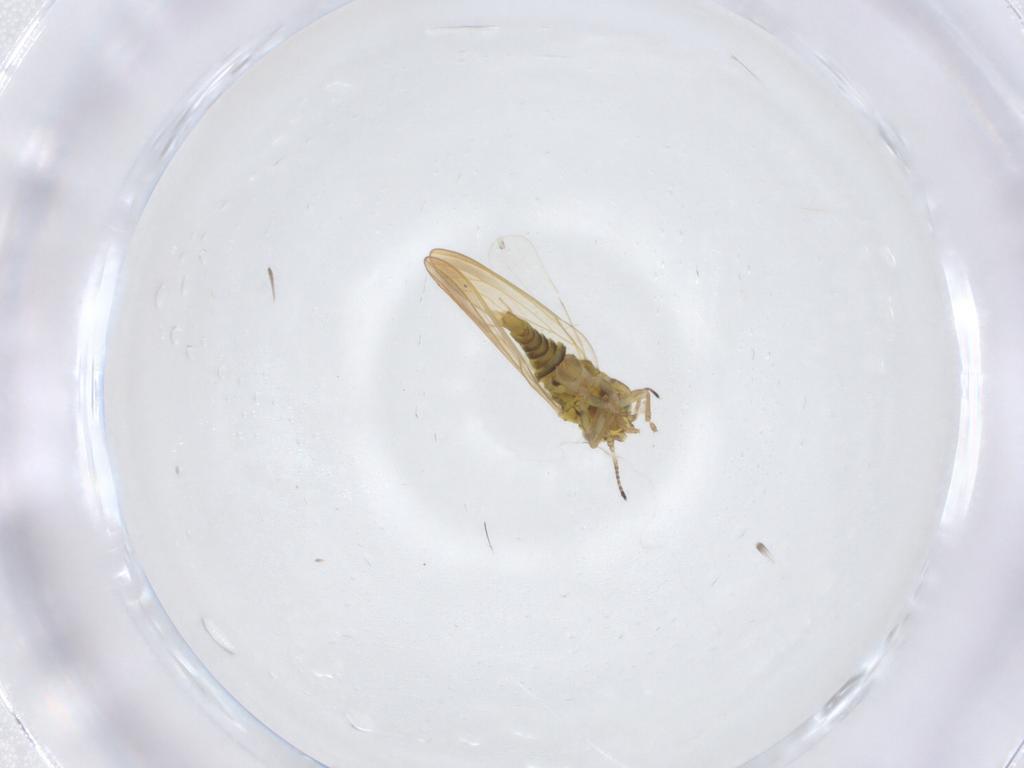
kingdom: Animalia
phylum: Arthropoda
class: Insecta
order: Hemiptera
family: Aphalaridae
